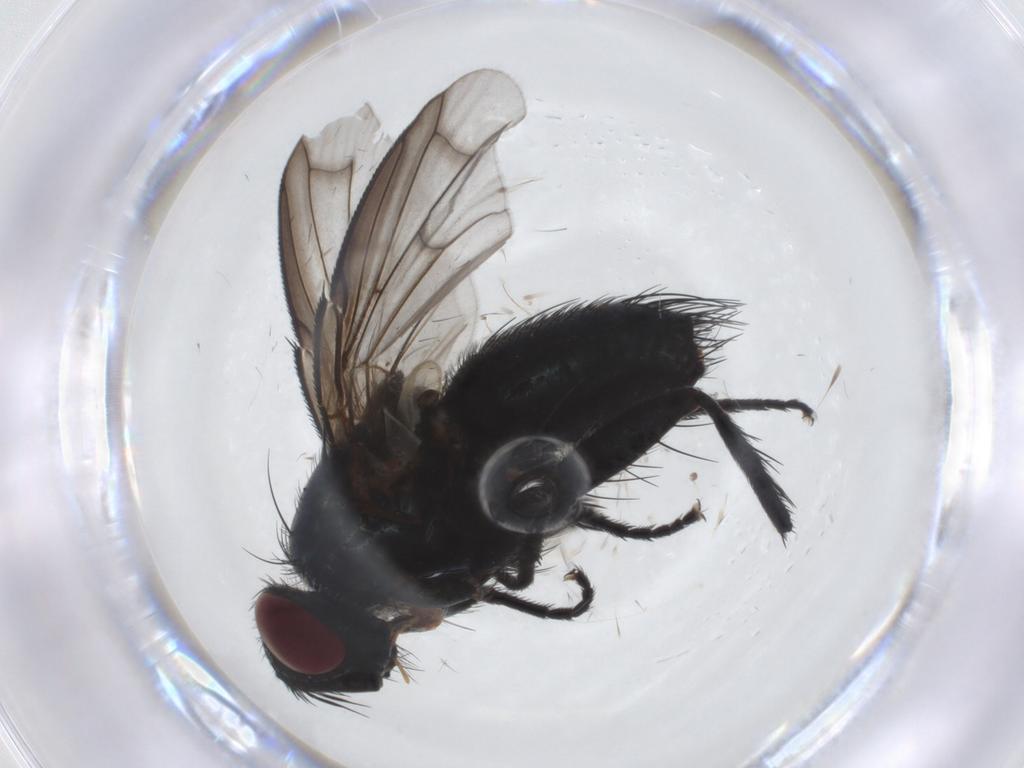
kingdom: Animalia
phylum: Arthropoda
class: Insecta
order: Diptera
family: Tachinidae
